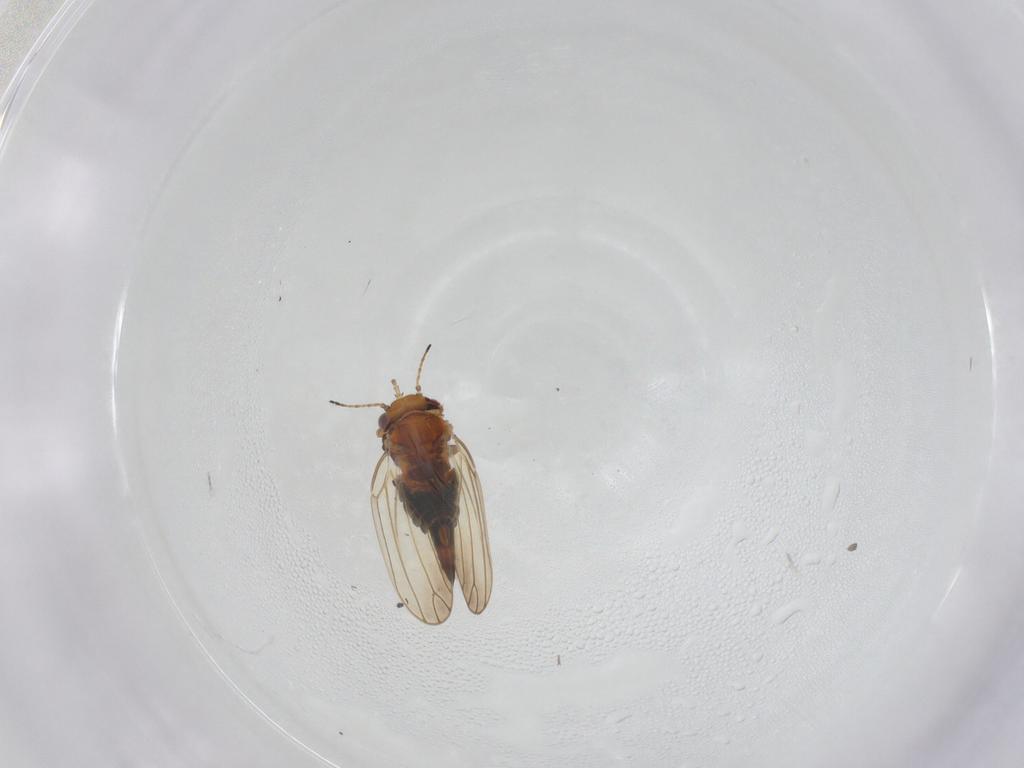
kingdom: Animalia
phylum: Arthropoda
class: Insecta
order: Hemiptera
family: Aphalaridae
